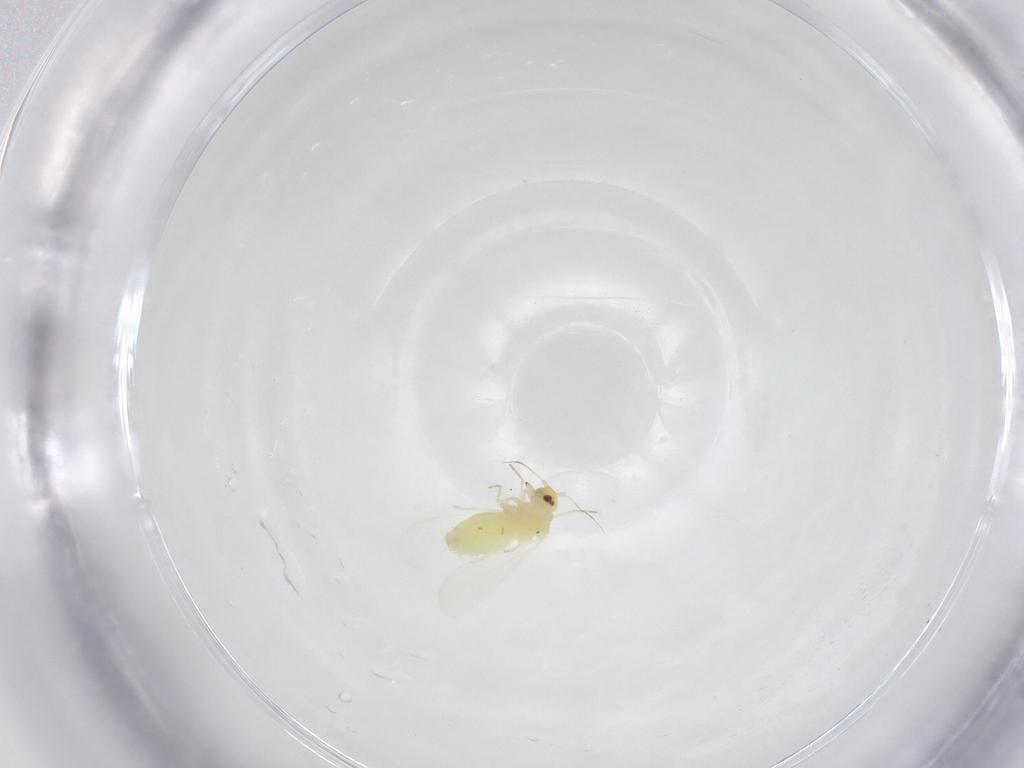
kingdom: Animalia
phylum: Arthropoda
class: Insecta
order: Hemiptera
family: Aleyrodidae
